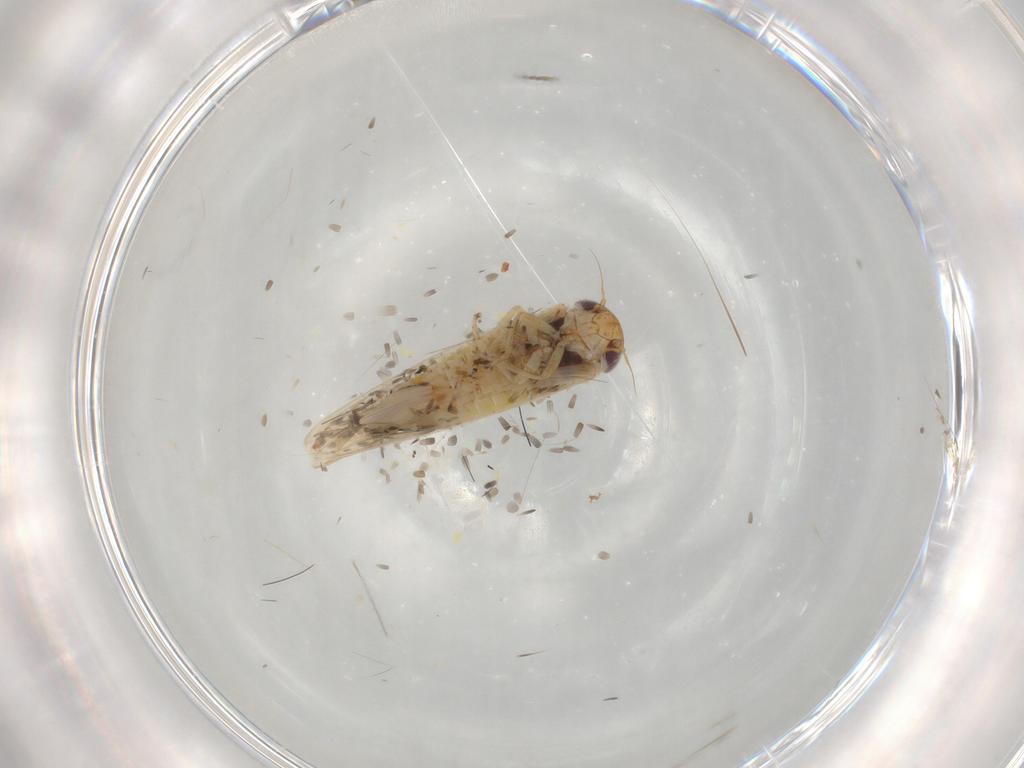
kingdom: Animalia
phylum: Arthropoda
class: Insecta
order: Hemiptera
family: Cicadellidae
